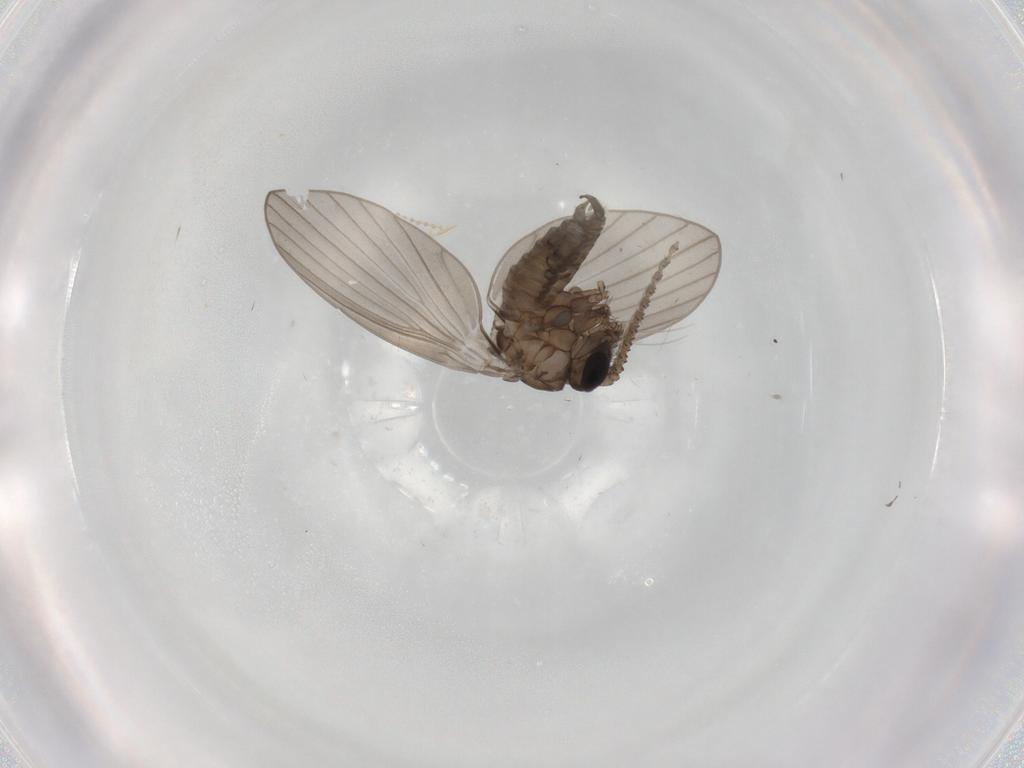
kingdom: Animalia
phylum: Arthropoda
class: Insecta
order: Diptera
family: Phoridae
